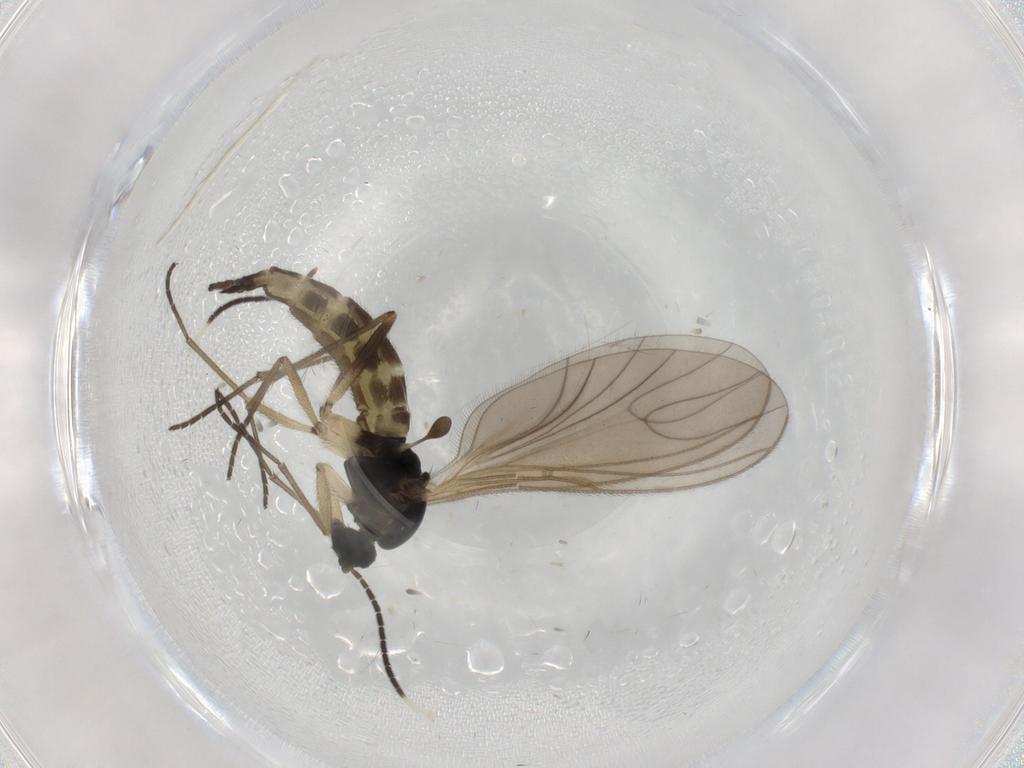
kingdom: Animalia
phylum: Arthropoda
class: Insecta
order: Diptera
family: Sciaridae
